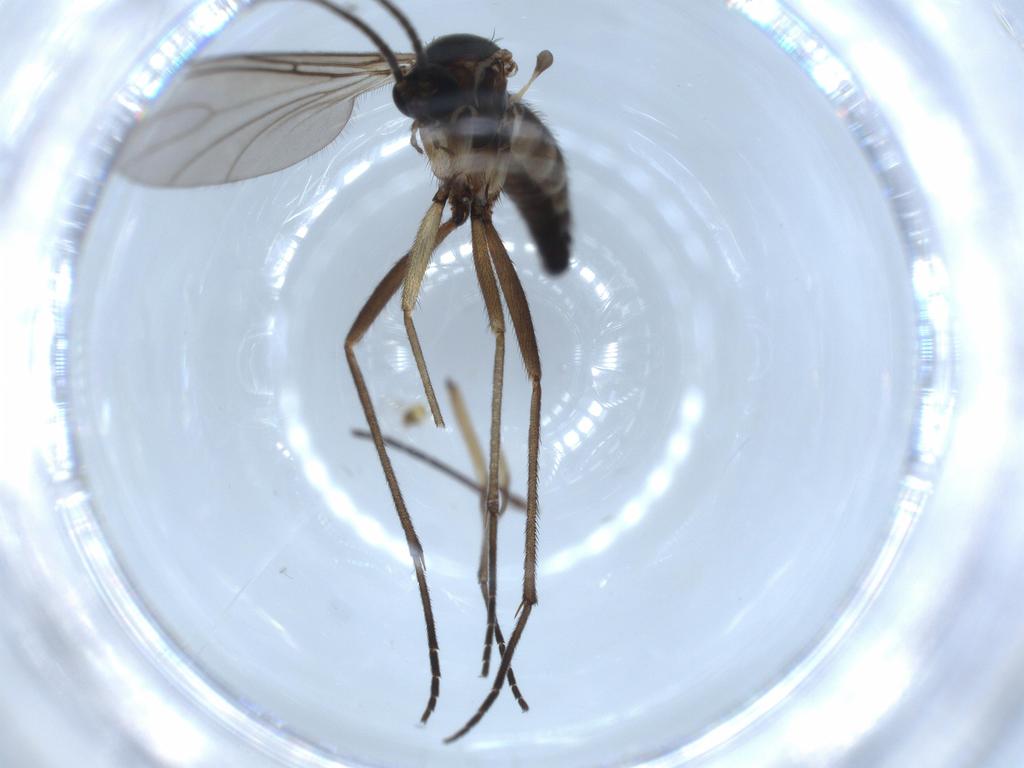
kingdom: Animalia
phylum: Arthropoda
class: Insecta
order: Diptera
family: Sciaridae
